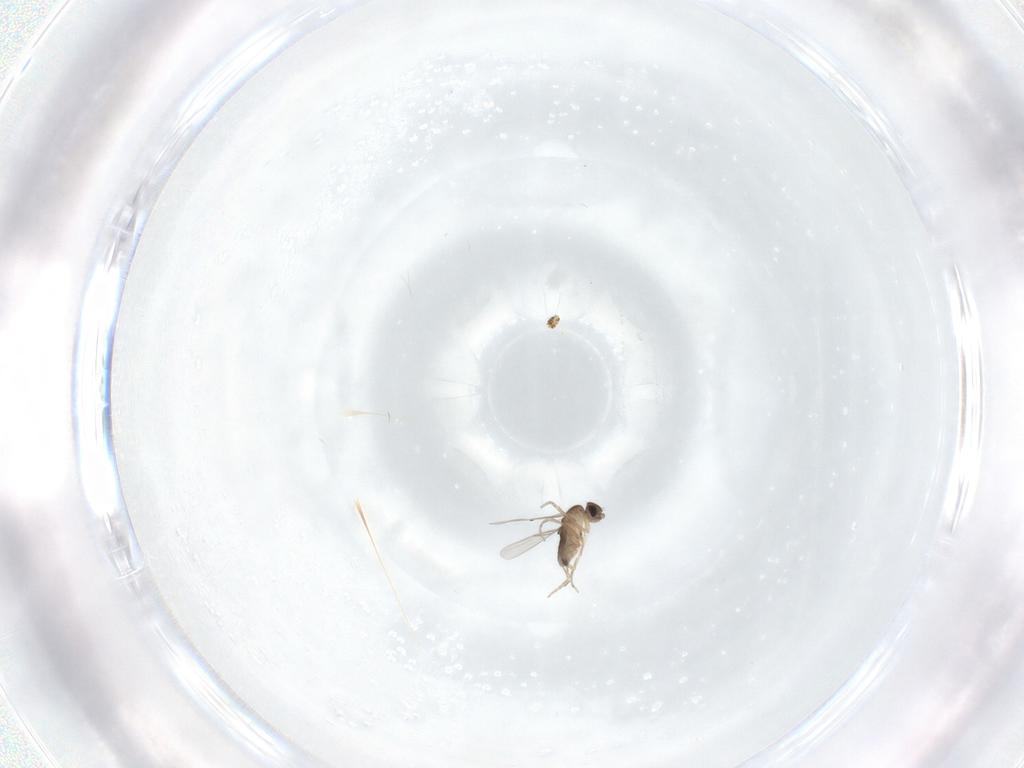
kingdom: Animalia
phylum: Arthropoda
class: Insecta
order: Diptera
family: Phoridae
